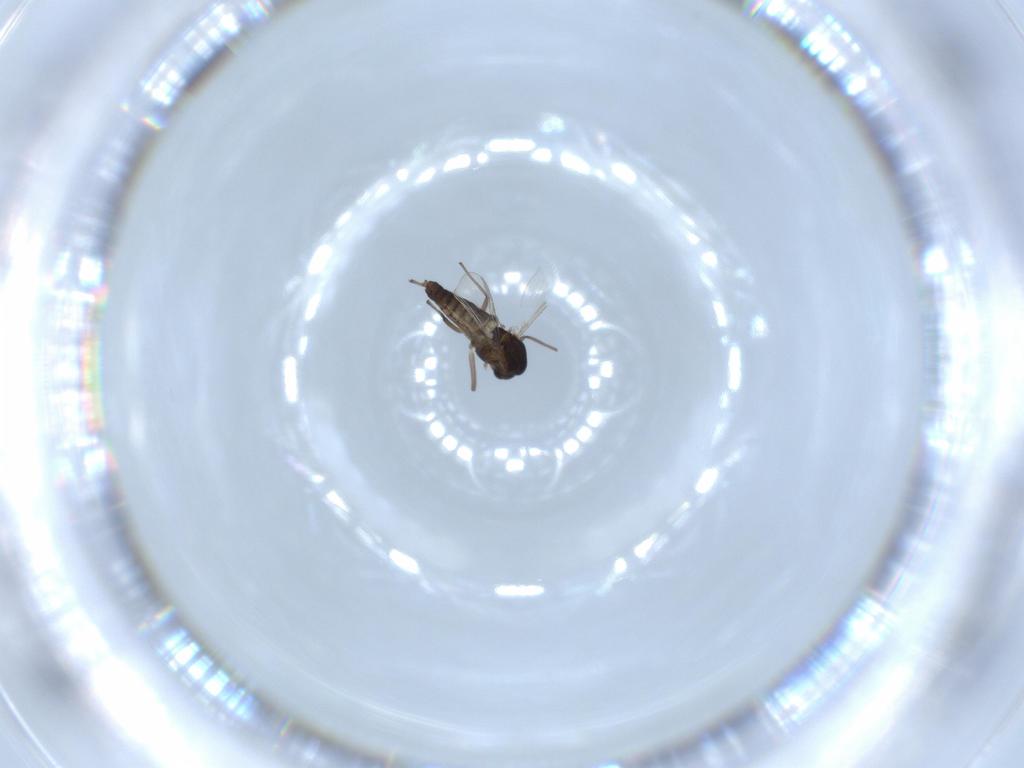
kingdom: Animalia
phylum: Arthropoda
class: Insecta
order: Diptera
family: Chironomidae
